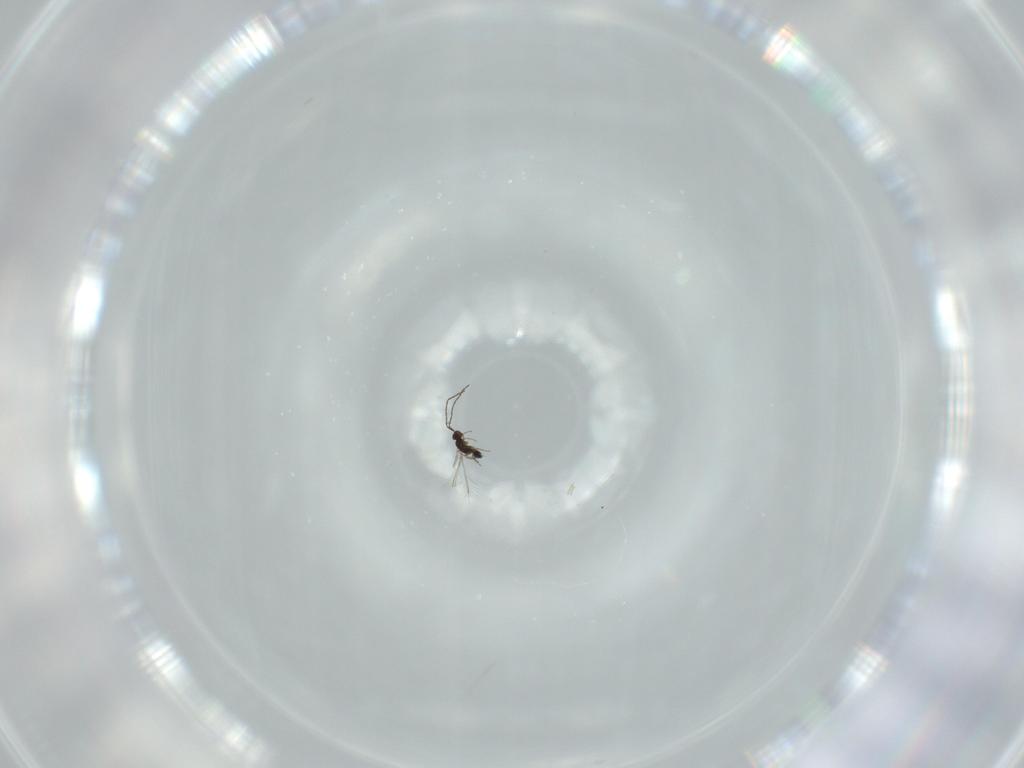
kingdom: Animalia
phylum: Arthropoda
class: Insecta
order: Hymenoptera
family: Mymaridae
